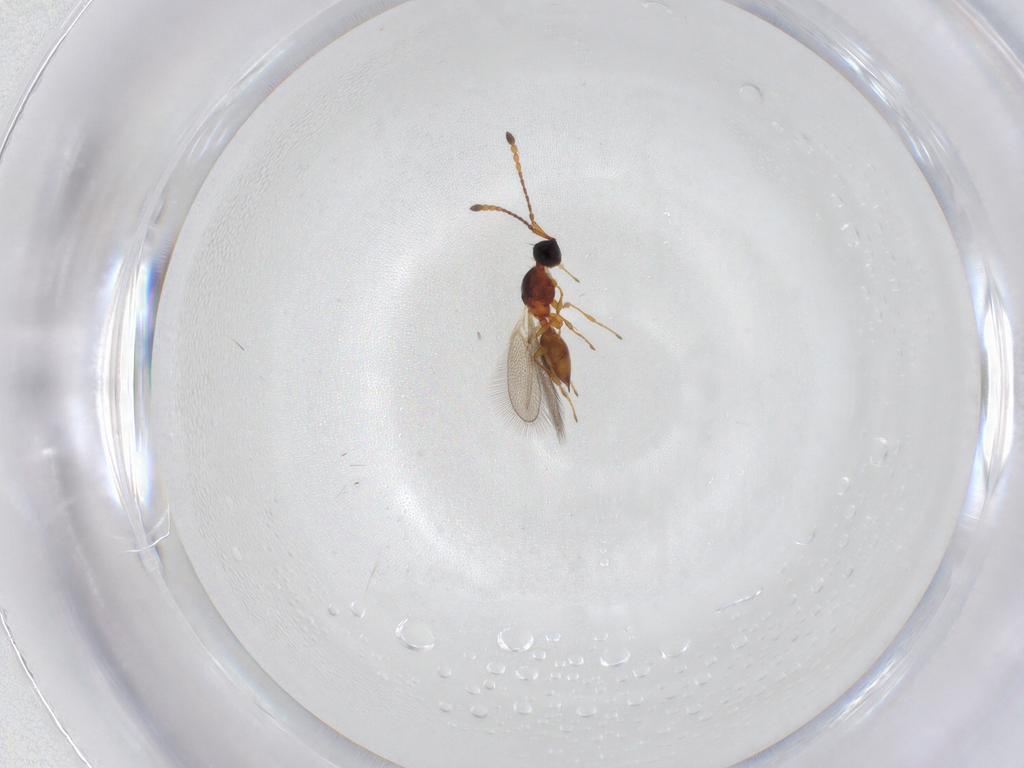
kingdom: Animalia
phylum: Arthropoda
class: Insecta
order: Hymenoptera
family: Diapriidae
